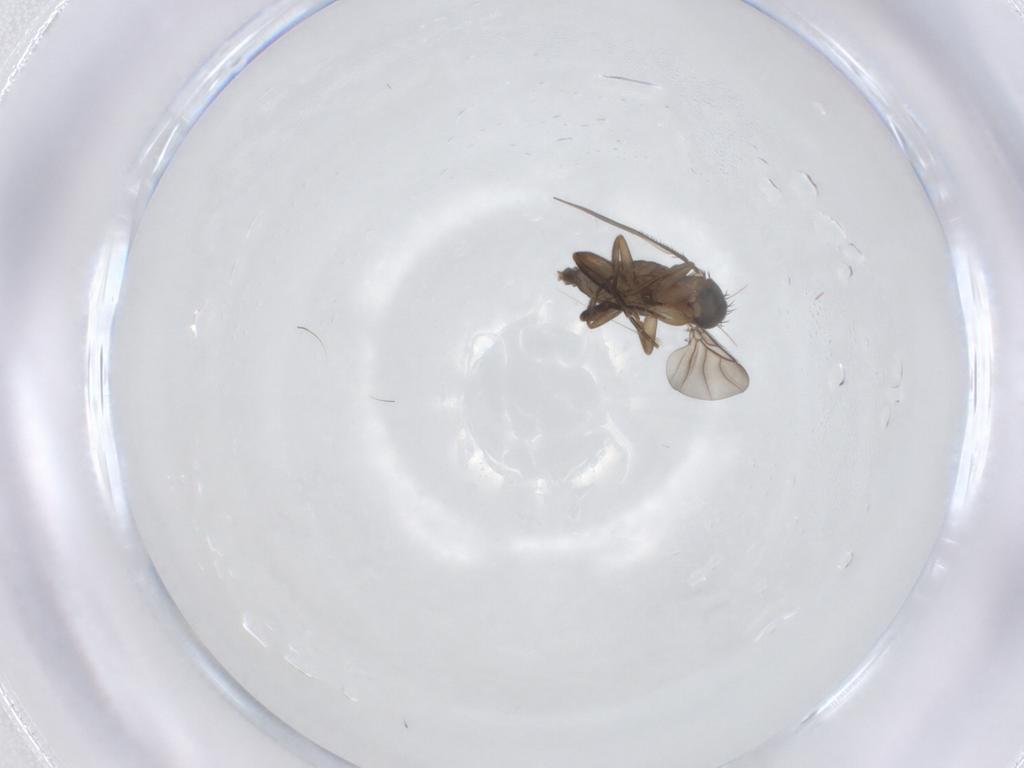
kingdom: Animalia
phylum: Arthropoda
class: Insecta
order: Diptera
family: Phoridae
